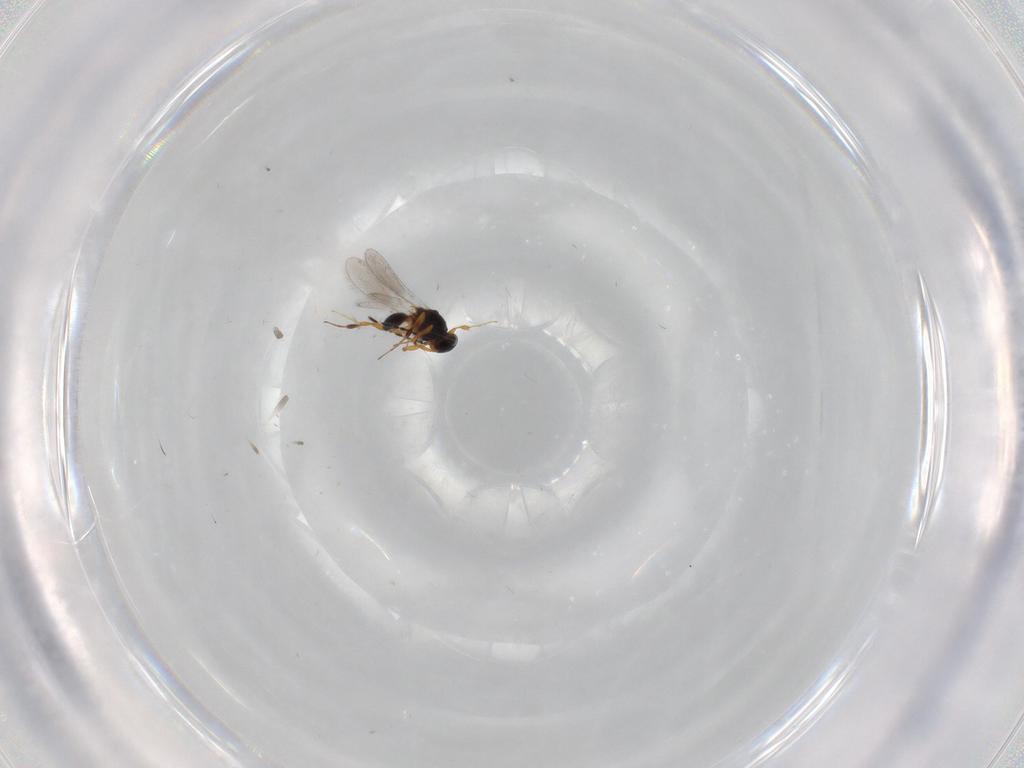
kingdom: Animalia
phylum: Arthropoda
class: Insecta
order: Hymenoptera
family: Platygastridae
